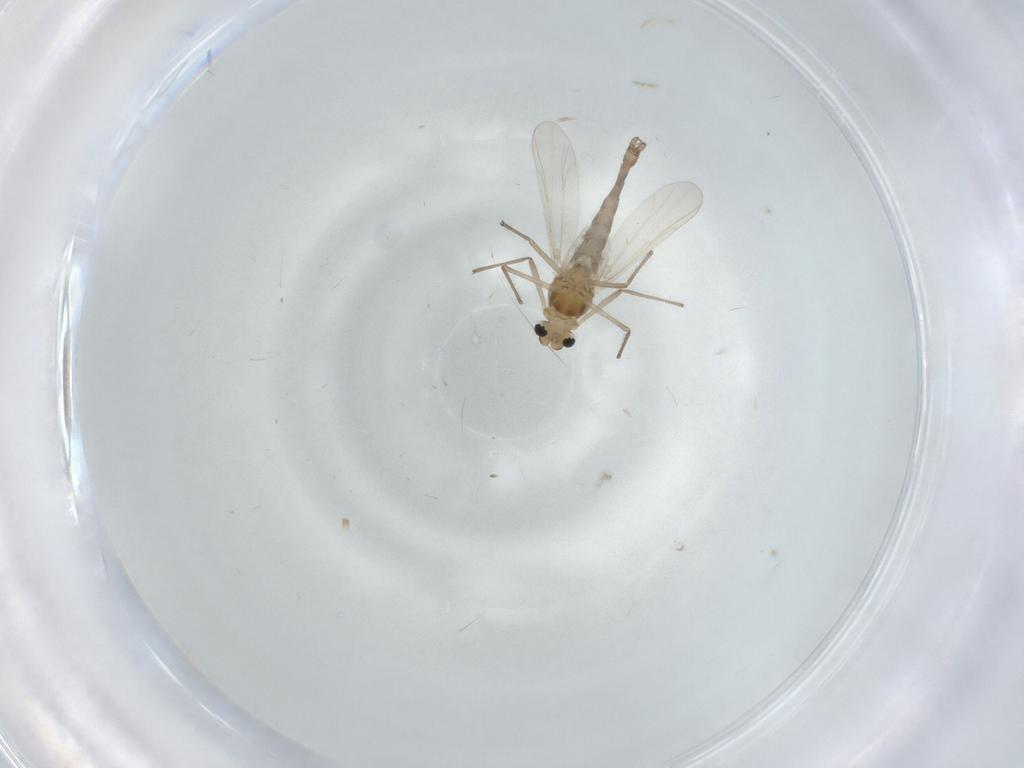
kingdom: Animalia
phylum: Arthropoda
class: Insecta
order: Diptera
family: Chironomidae
